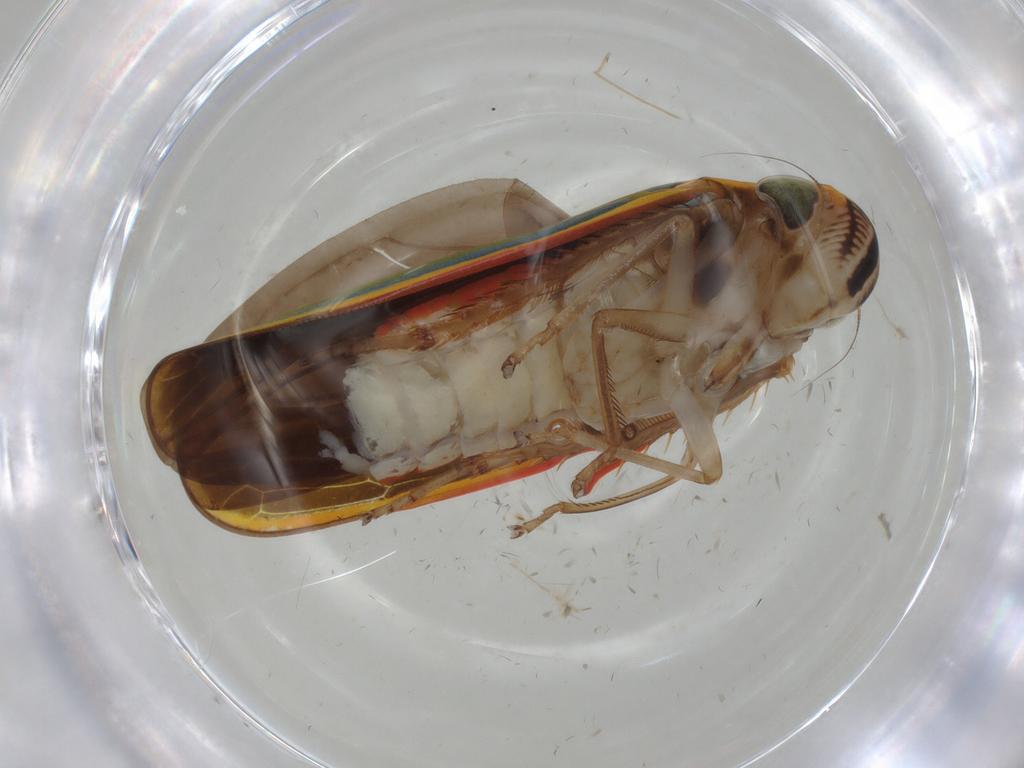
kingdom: Animalia
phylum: Arthropoda
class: Insecta
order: Hemiptera
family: Cicadellidae
